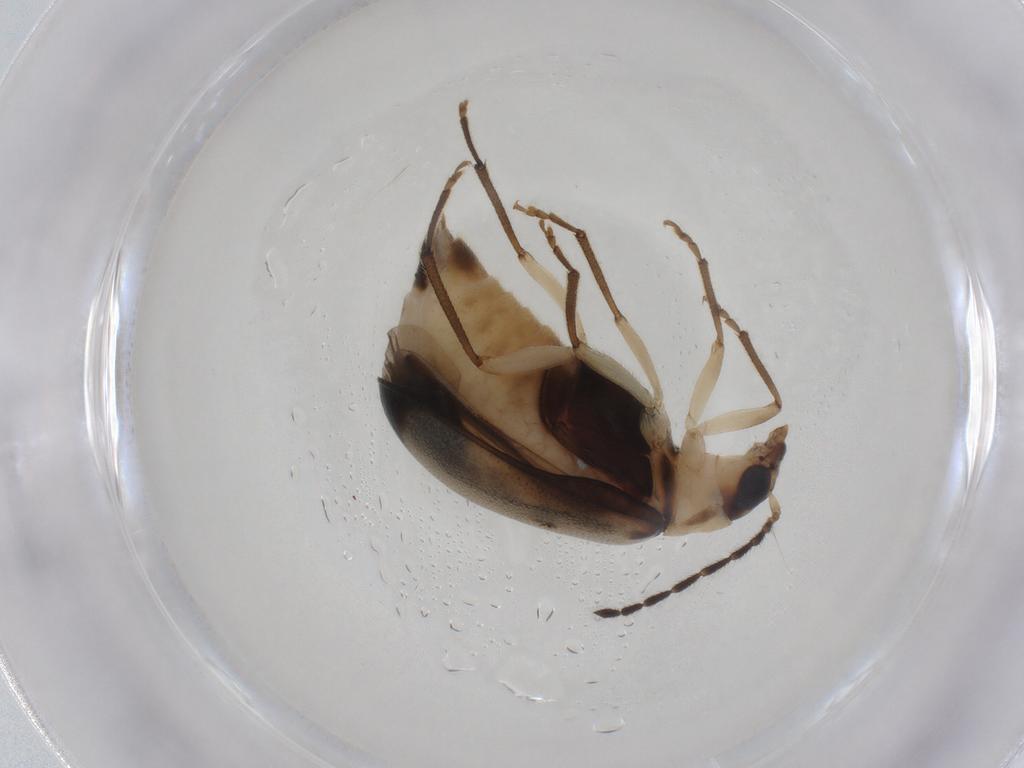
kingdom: Animalia
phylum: Arthropoda
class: Insecta
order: Coleoptera
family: Chrysomelidae
